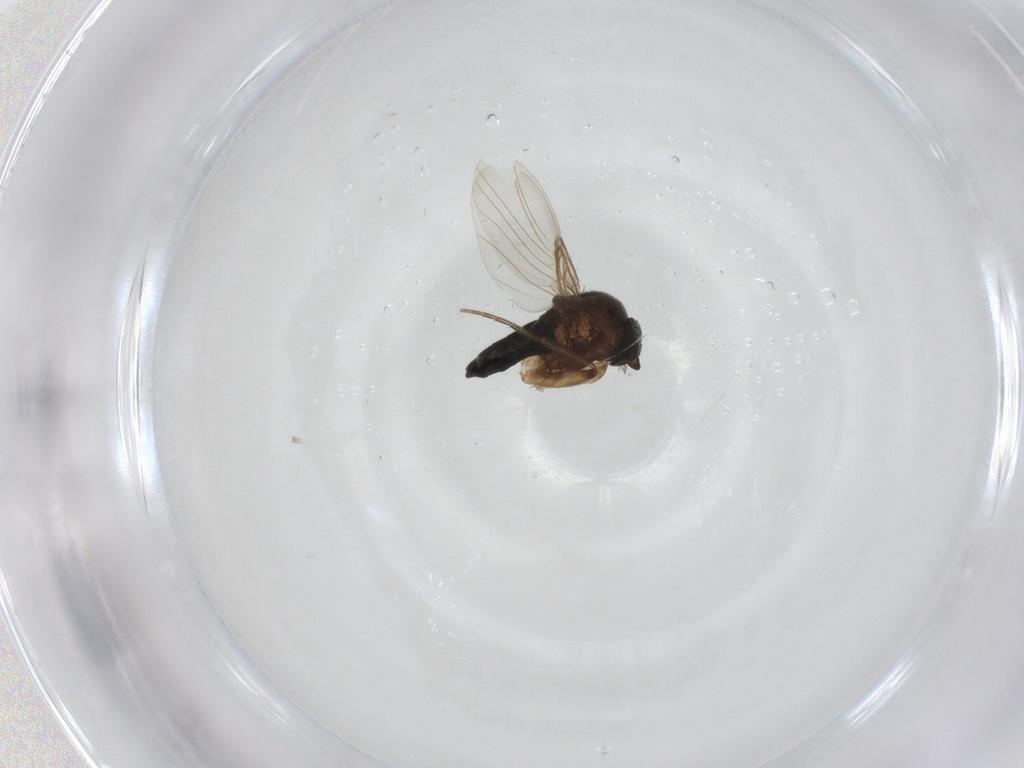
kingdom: Animalia
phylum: Arthropoda
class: Insecta
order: Diptera
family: Phoridae
